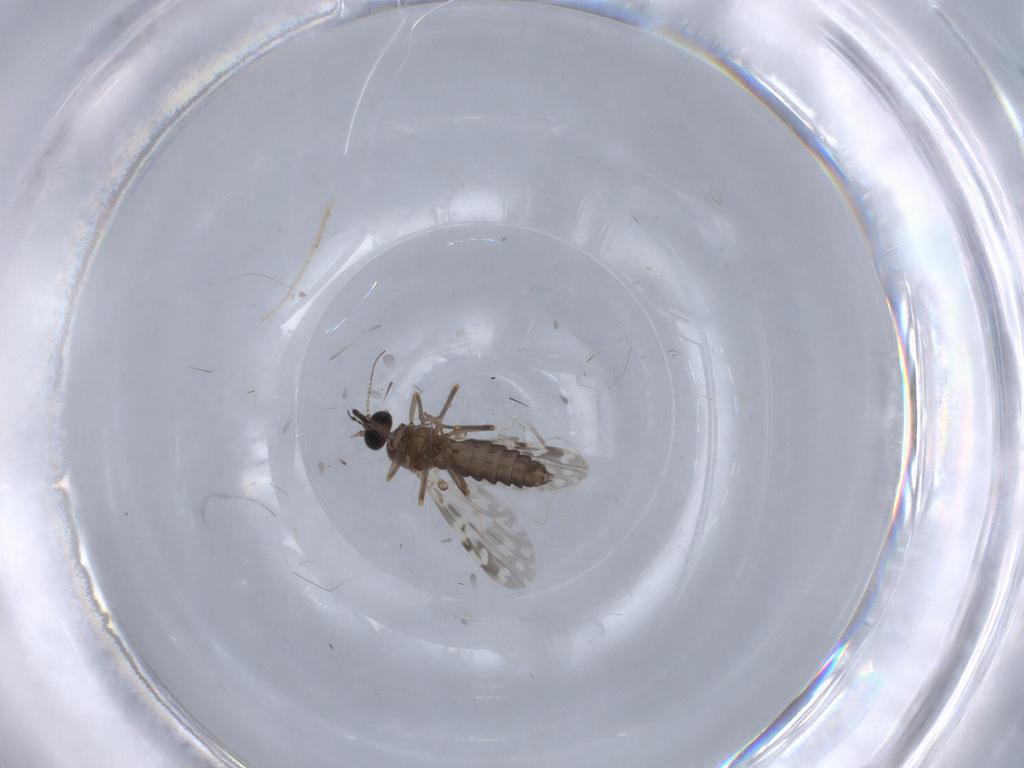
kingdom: Animalia
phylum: Arthropoda
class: Insecta
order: Diptera
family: Ceratopogonidae
